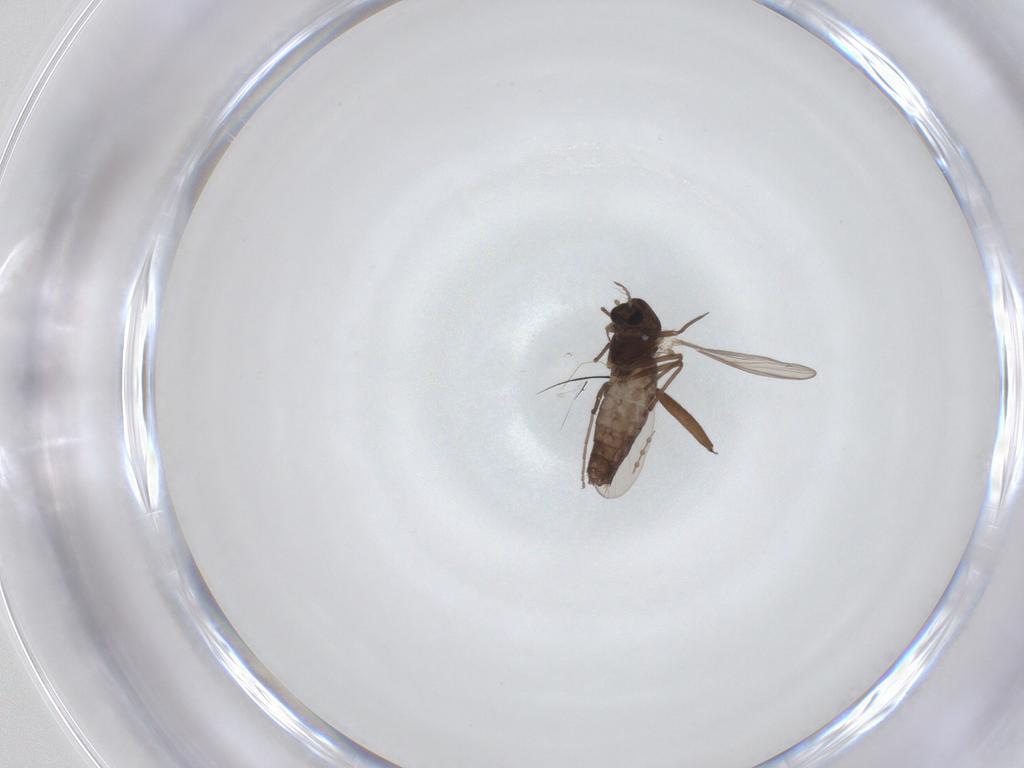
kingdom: Animalia
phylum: Arthropoda
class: Insecta
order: Diptera
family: Chironomidae
